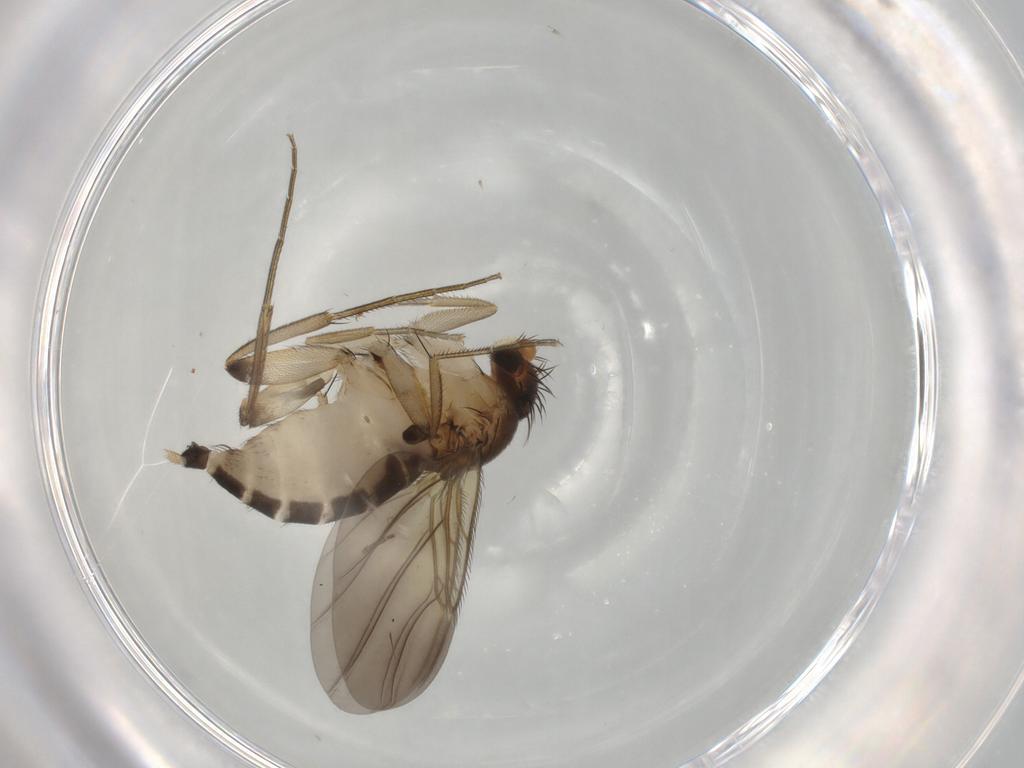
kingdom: Animalia
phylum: Arthropoda
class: Insecta
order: Diptera
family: Phoridae
